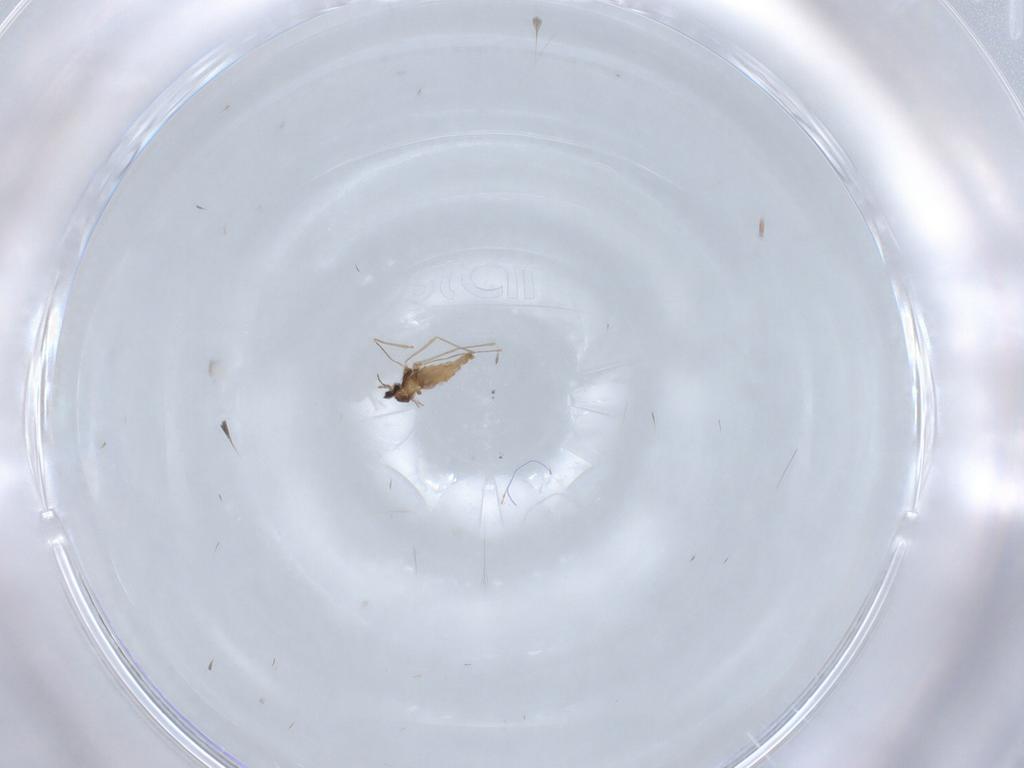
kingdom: Animalia
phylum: Arthropoda
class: Insecta
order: Diptera
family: Cecidomyiidae
